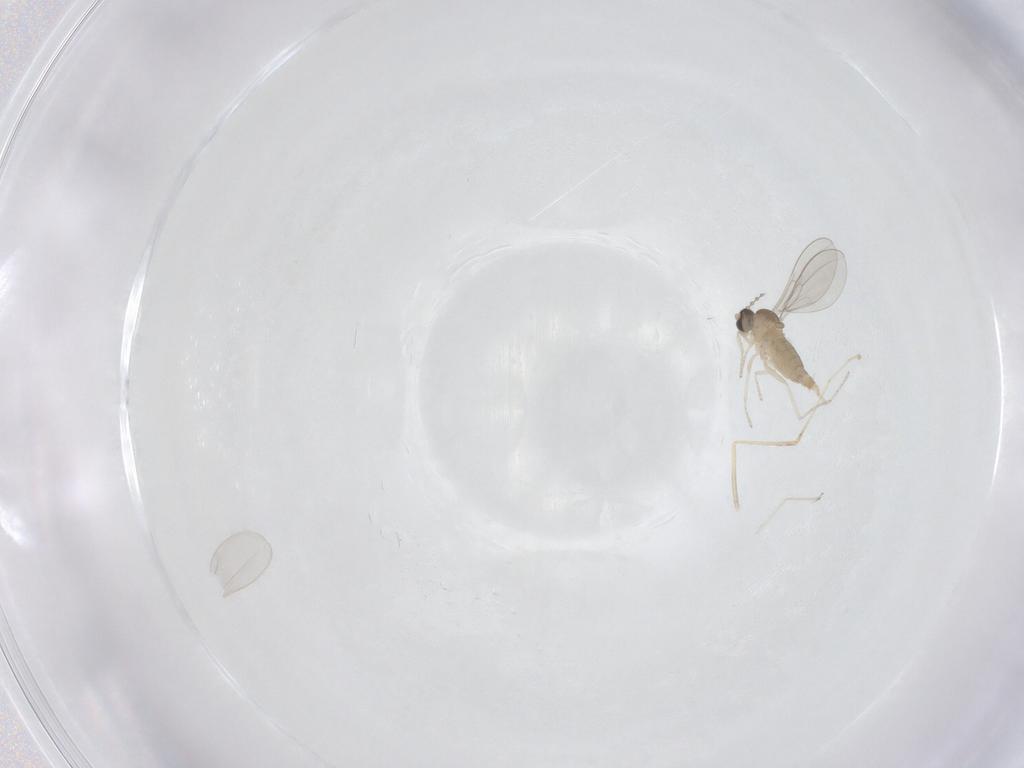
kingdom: Animalia
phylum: Arthropoda
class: Insecta
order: Diptera
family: Cecidomyiidae
